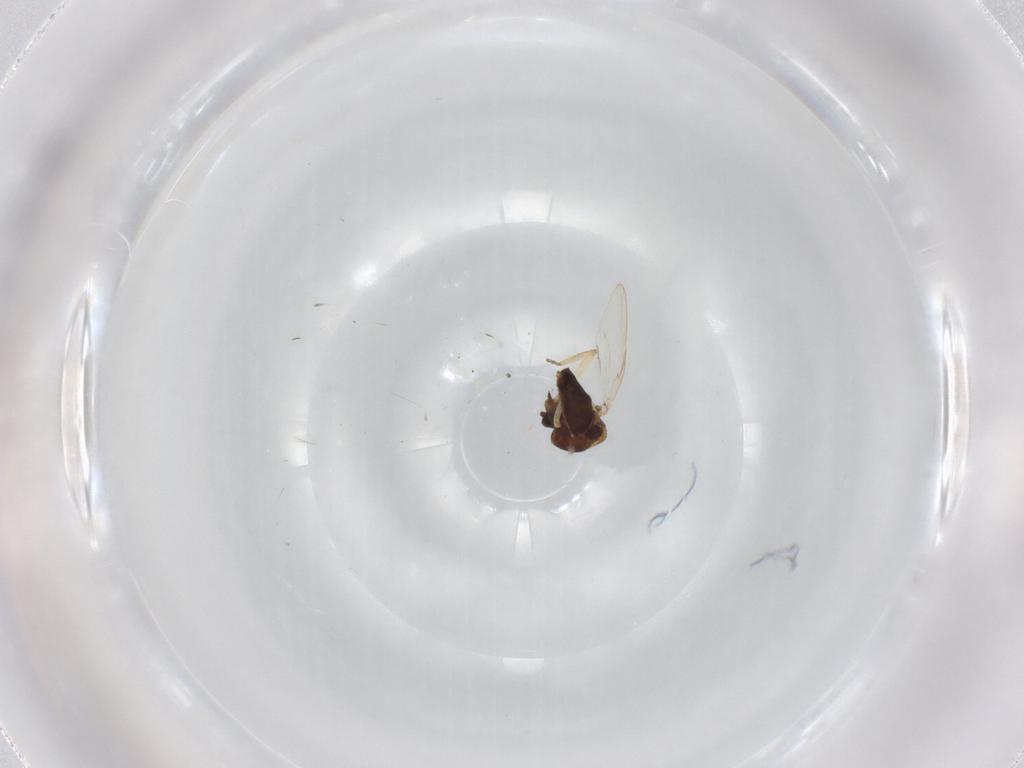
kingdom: Animalia
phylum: Arthropoda
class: Insecta
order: Diptera
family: Ceratopogonidae
